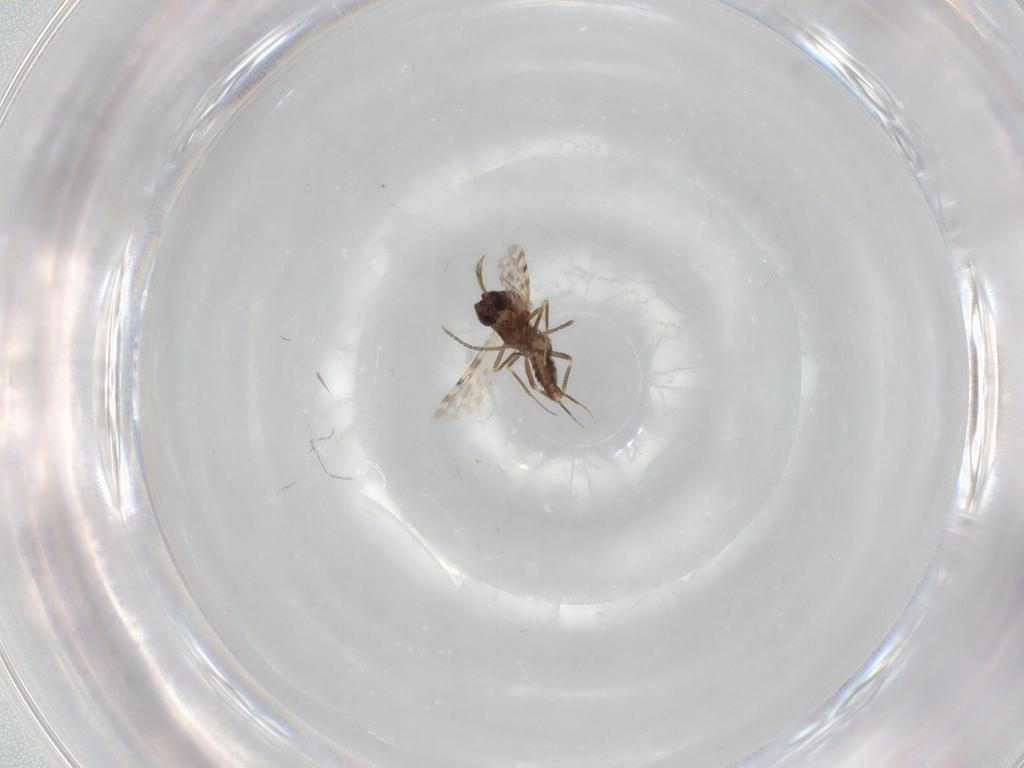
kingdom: Animalia
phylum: Arthropoda
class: Insecta
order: Diptera
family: Ceratopogonidae
